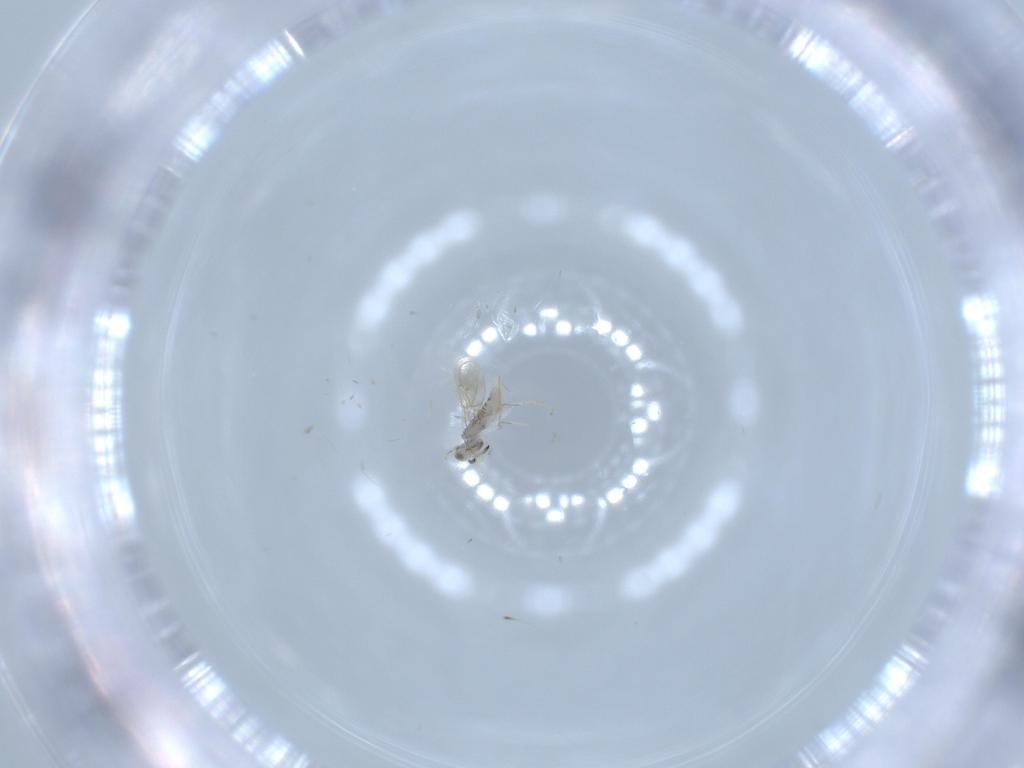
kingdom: Animalia
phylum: Arthropoda
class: Insecta
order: Hymenoptera
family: Aphelinidae
